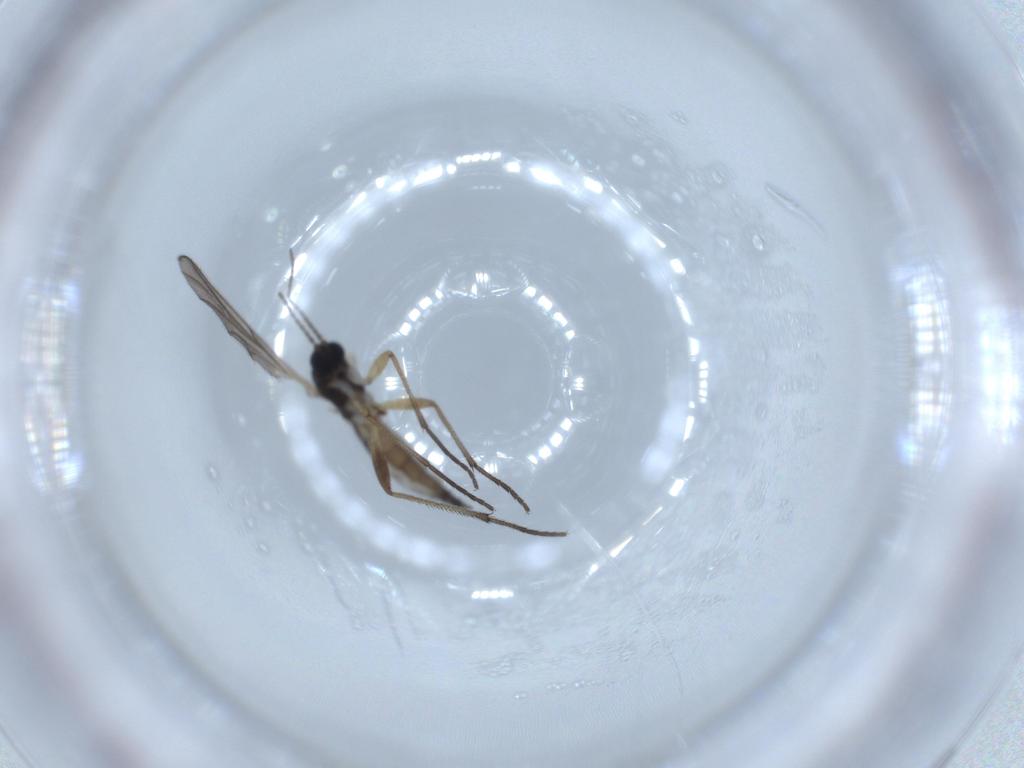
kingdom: Animalia
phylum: Arthropoda
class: Insecta
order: Diptera
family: Sciaridae
